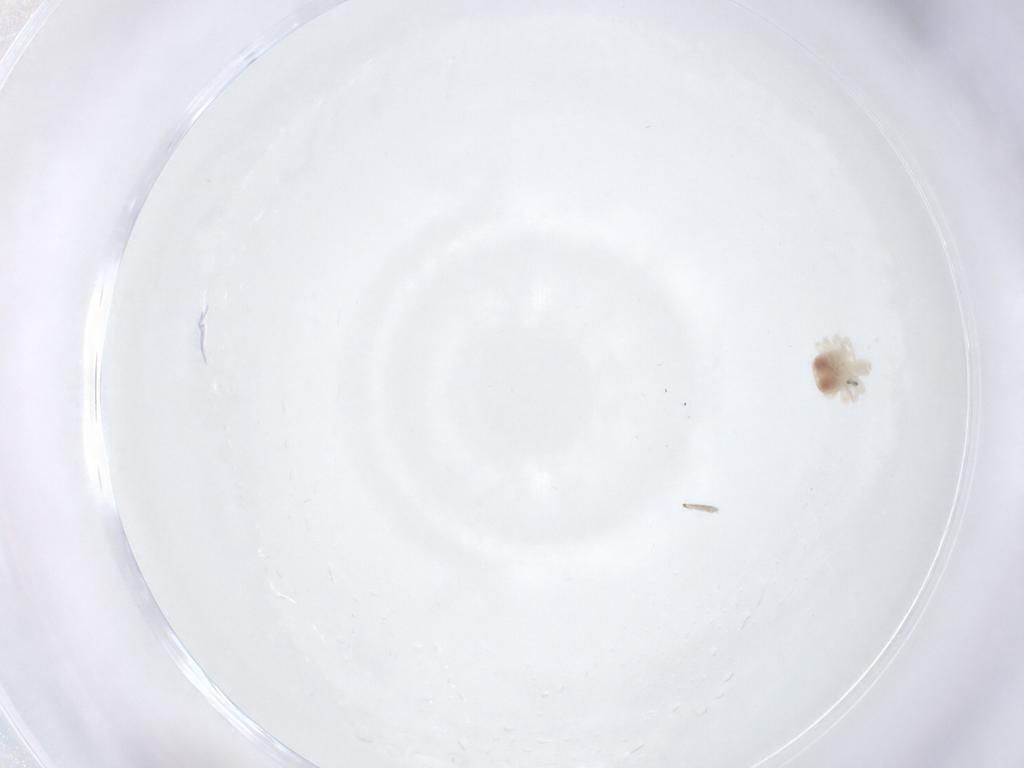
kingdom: Animalia
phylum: Arthropoda
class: Arachnida
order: Trombidiformes
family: Anystidae
